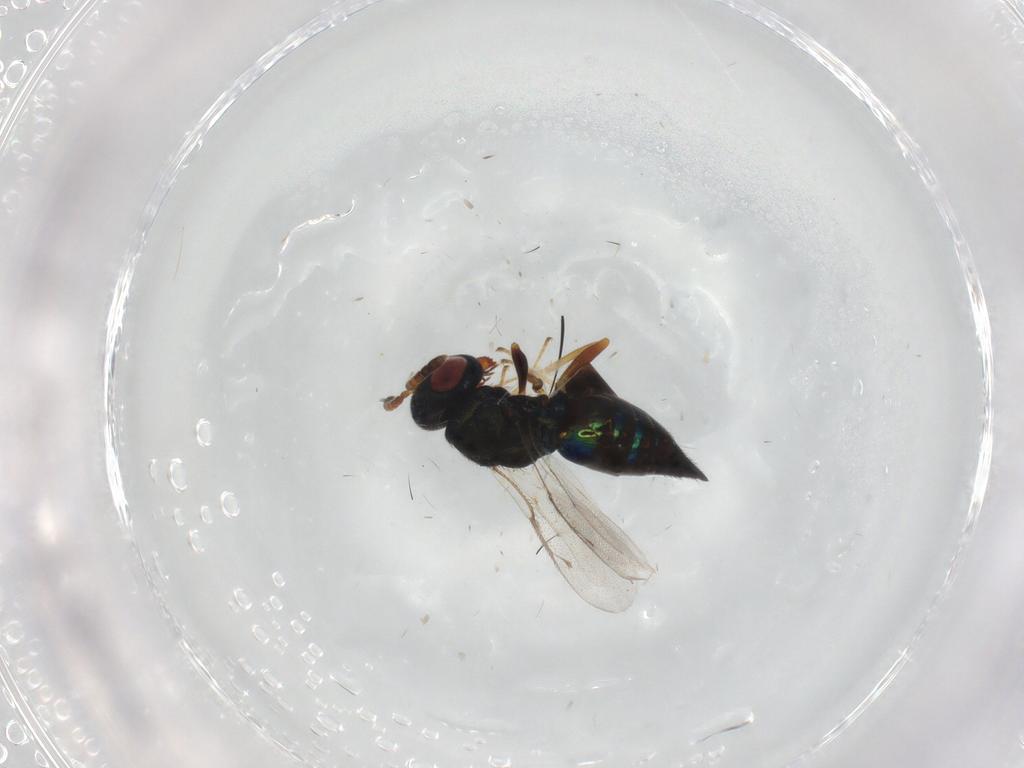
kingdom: Animalia
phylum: Arthropoda
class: Insecta
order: Hymenoptera
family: Pteromalidae
